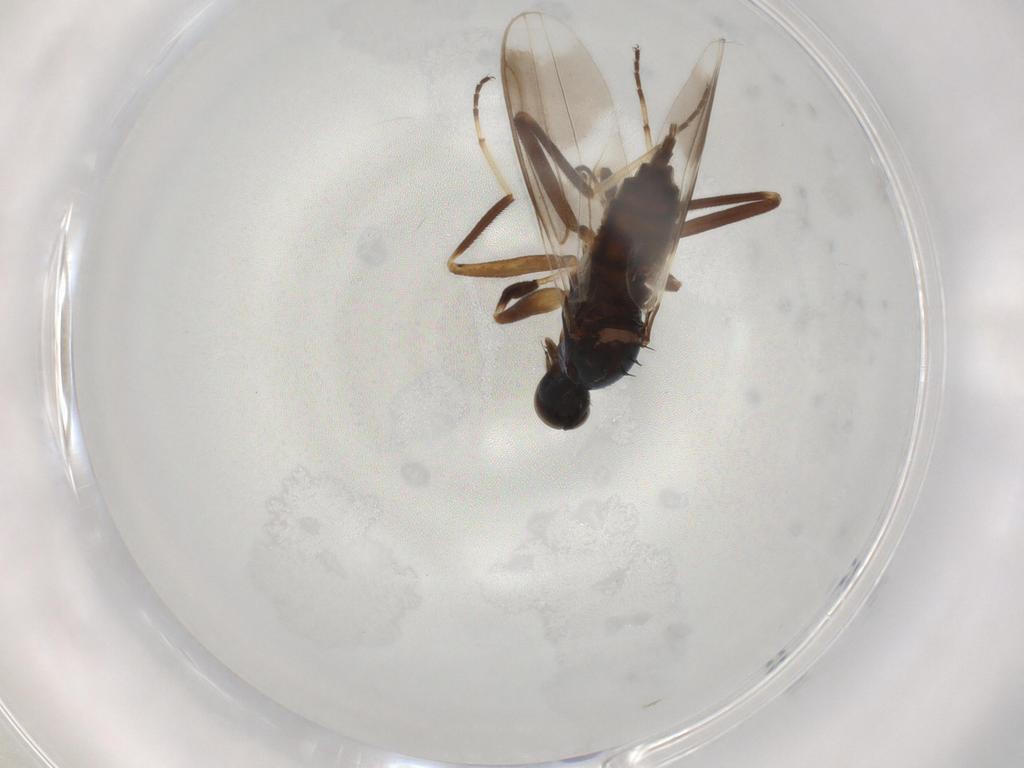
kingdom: Animalia
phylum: Arthropoda
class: Insecta
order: Diptera
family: Hybotidae
